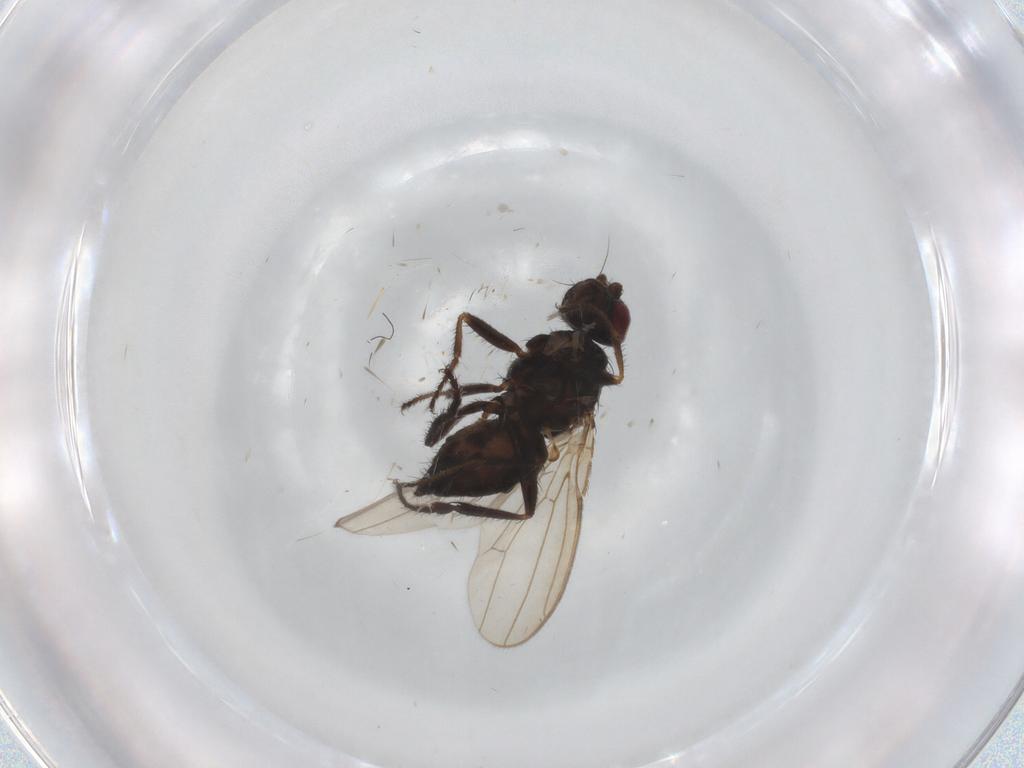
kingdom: Animalia
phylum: Arthropoda
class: Insecta
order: Diptera
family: Sphaeroceridae
